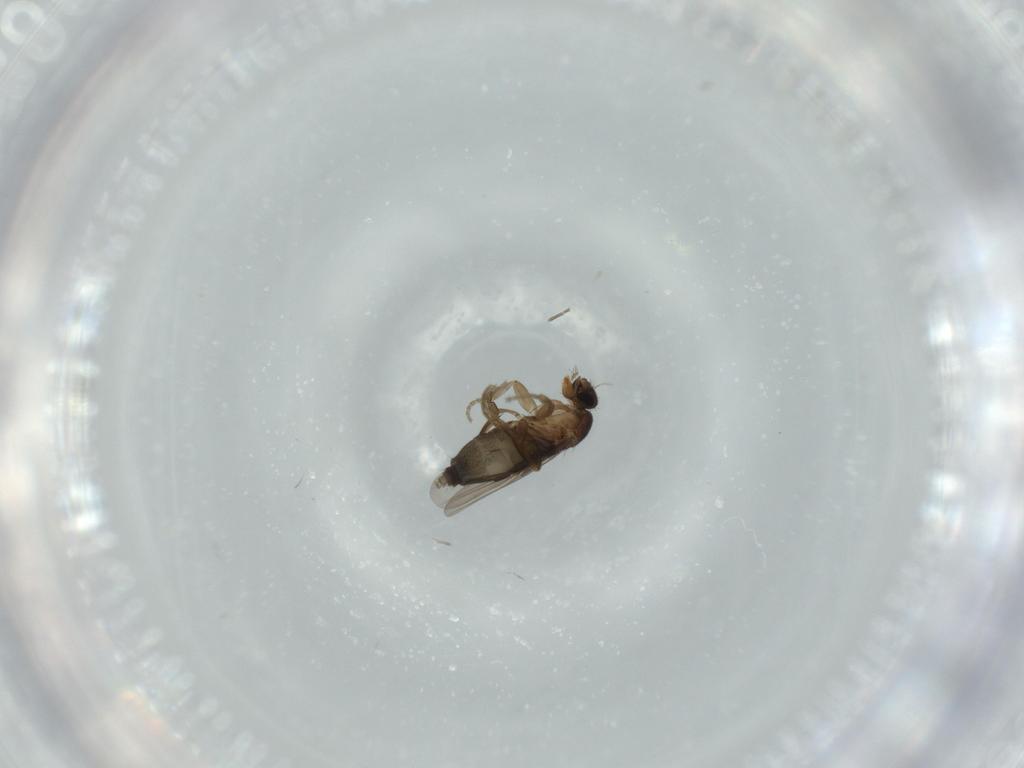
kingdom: Animalia
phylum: Arthropoda
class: Insecta
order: Diptera
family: Phoridae
